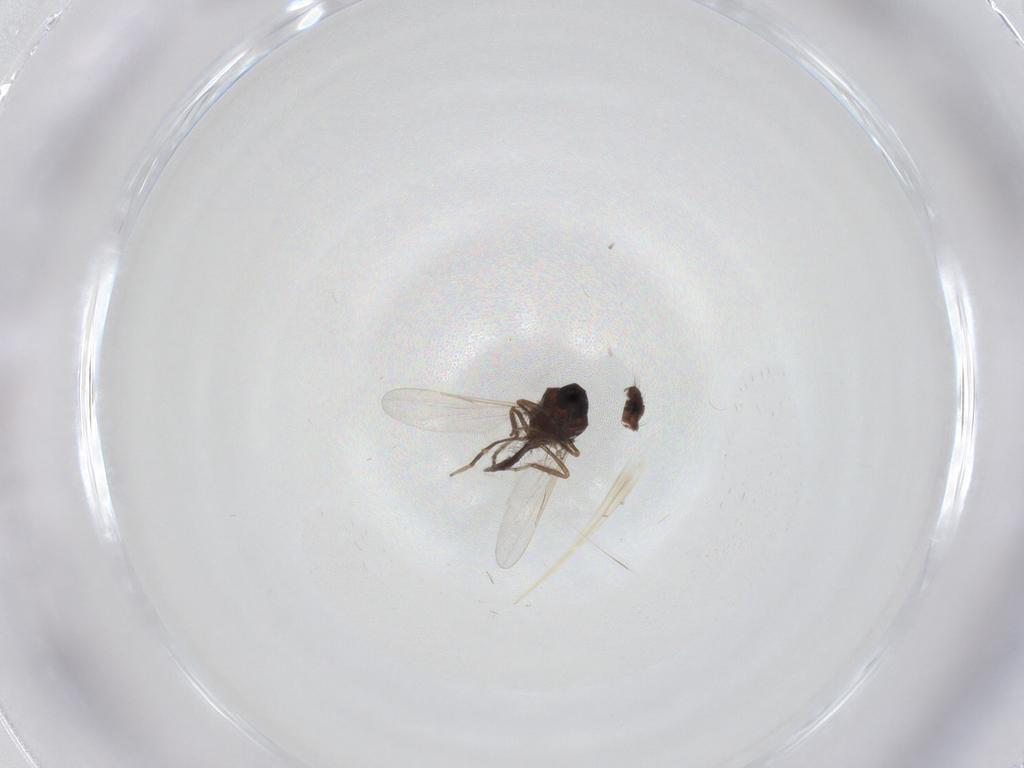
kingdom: Animalia
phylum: Arthropoda
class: Insecta
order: Diptera
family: Ceratopogonidae
